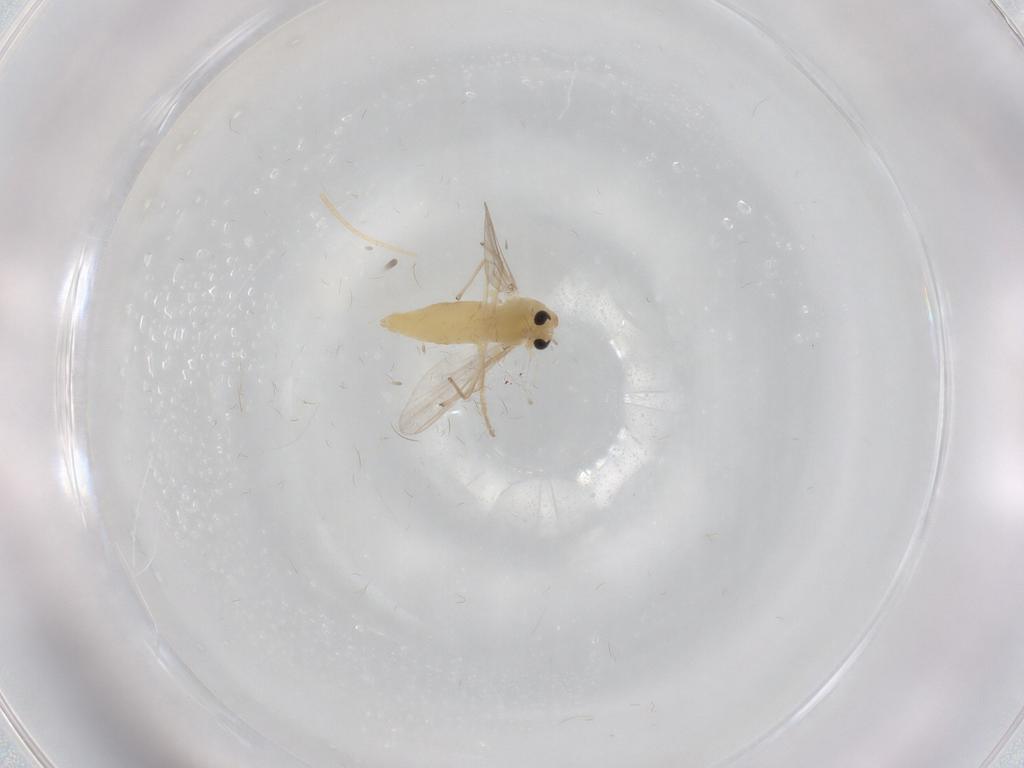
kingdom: Animalia
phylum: Arthropoda
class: Insecta
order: Diptera
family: Chironomidae
